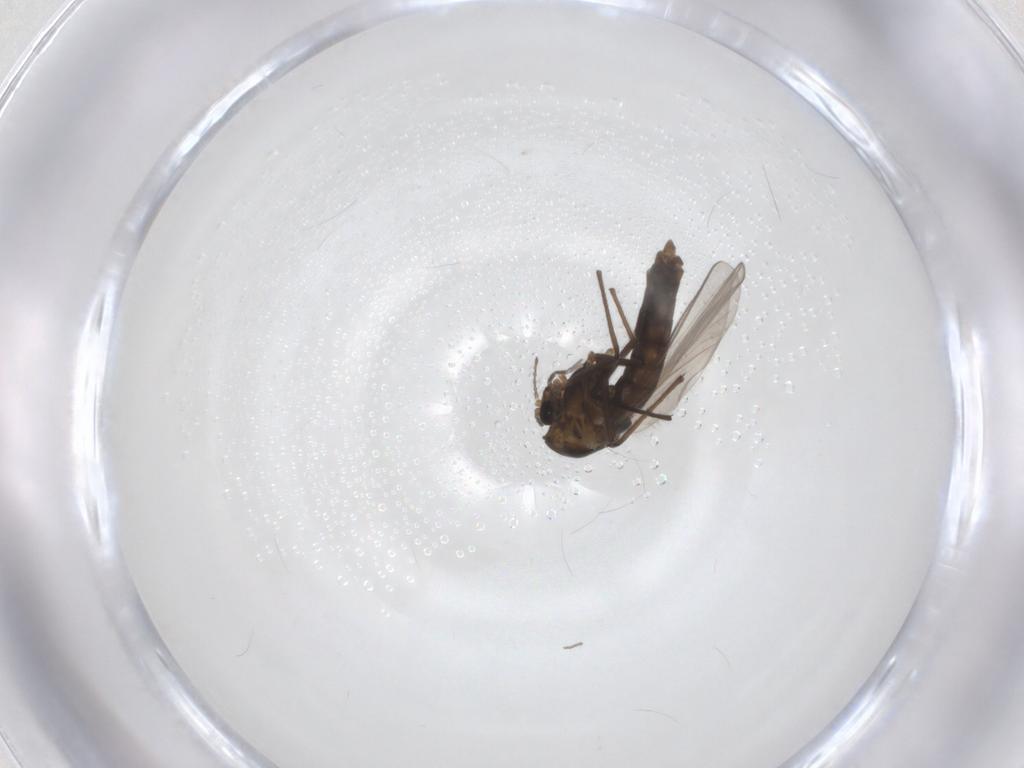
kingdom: Animalia
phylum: Arthropoda
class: Insecta
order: Diptera
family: Chironomidae
